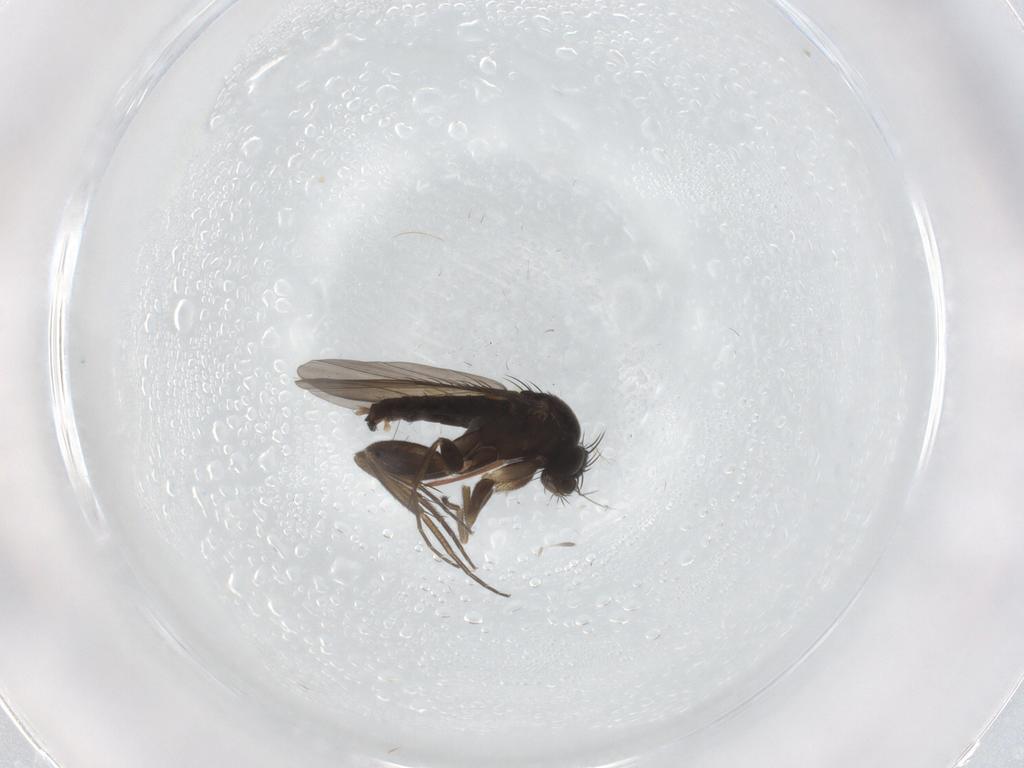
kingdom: Animalia
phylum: Arthropoda
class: Insecta
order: Diptera
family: Phoridae
